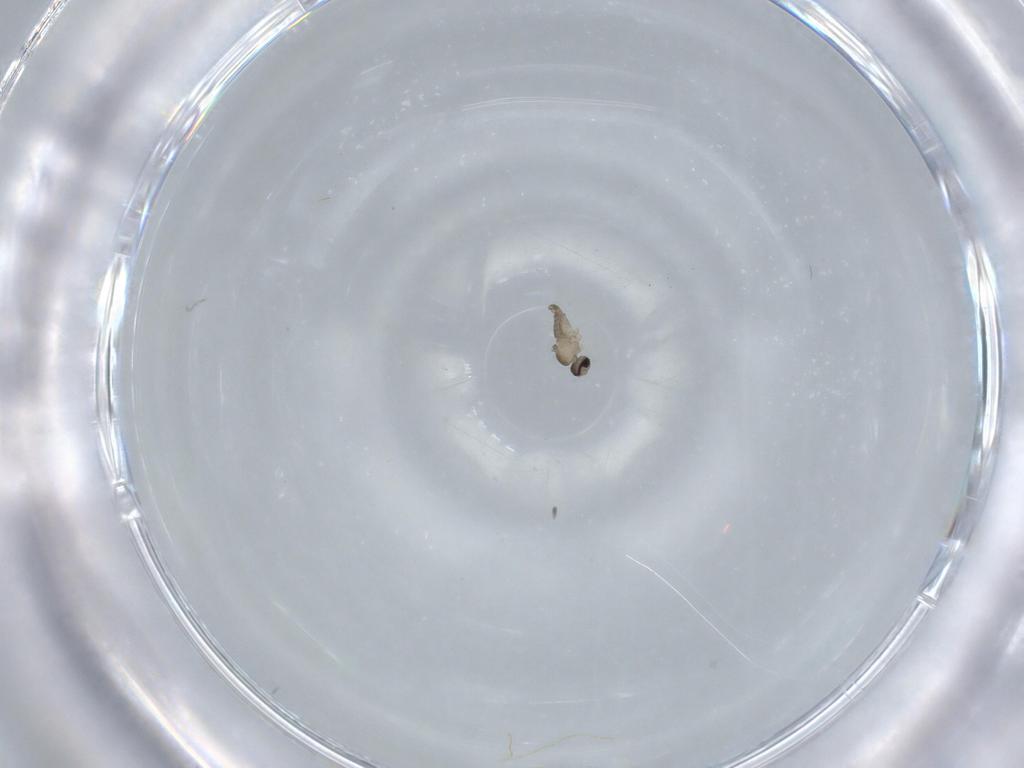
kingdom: Animalia
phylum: Arthropoda
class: Insecta
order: Diptera
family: Cecidomyiidae
